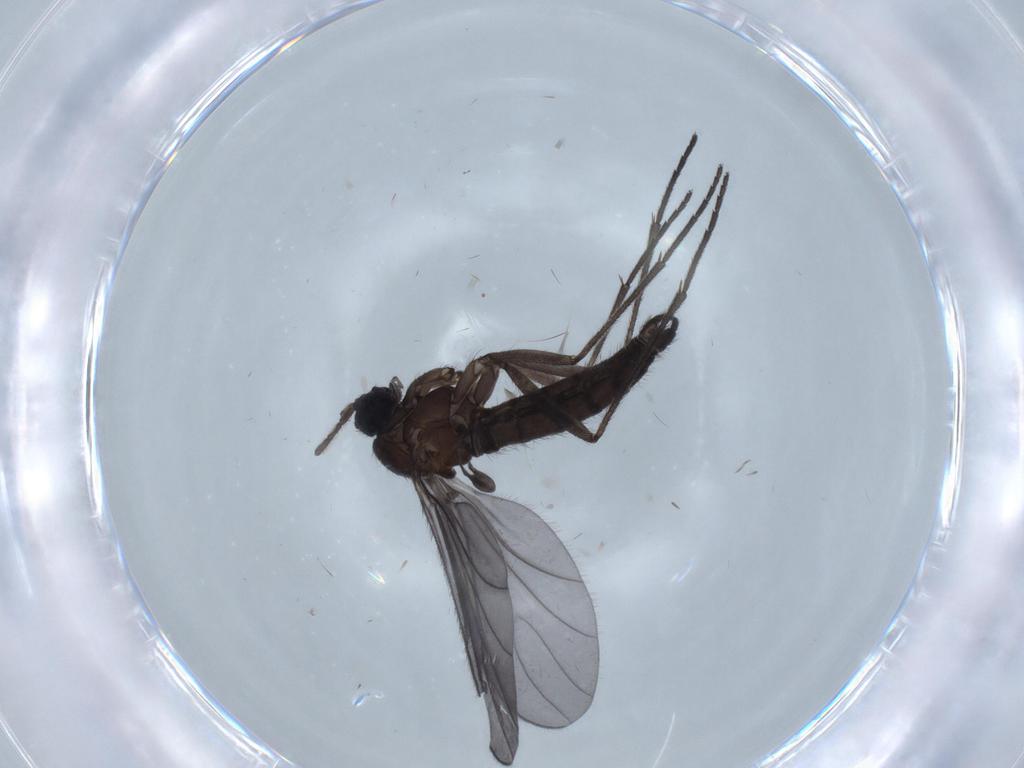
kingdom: Animalia
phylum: Arthropoda
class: Insecta
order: Diptera
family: Sciaridae
